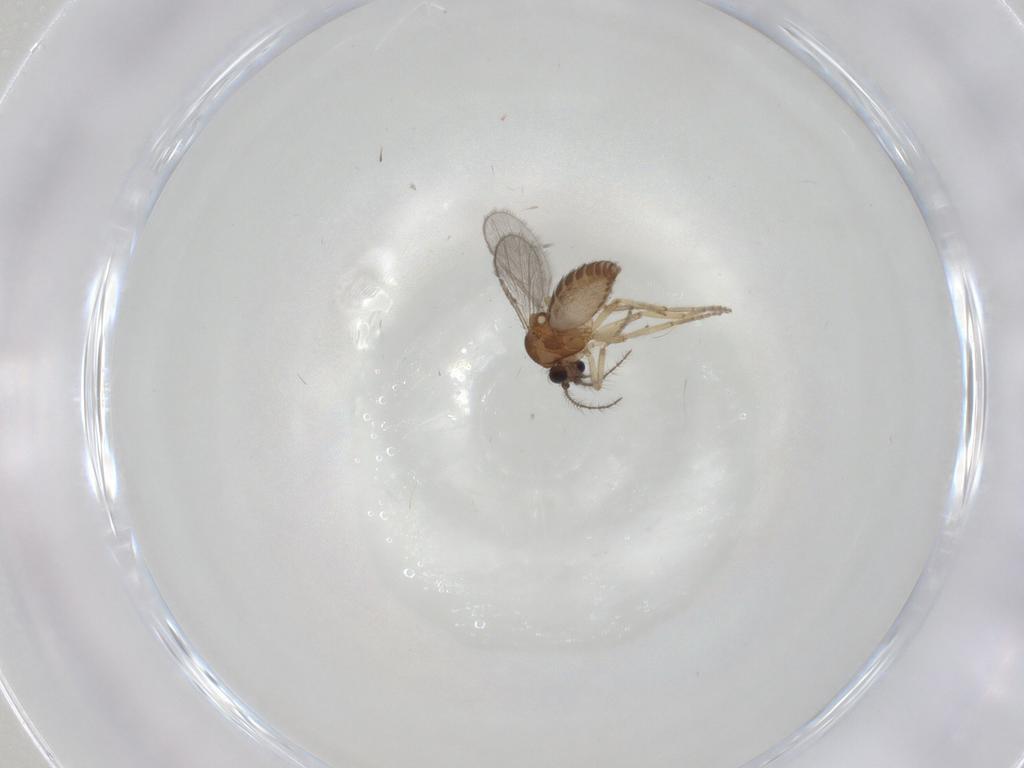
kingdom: Animalia
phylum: Arthropoda
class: Insecta
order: Diptera
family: Ceratopogonidae
